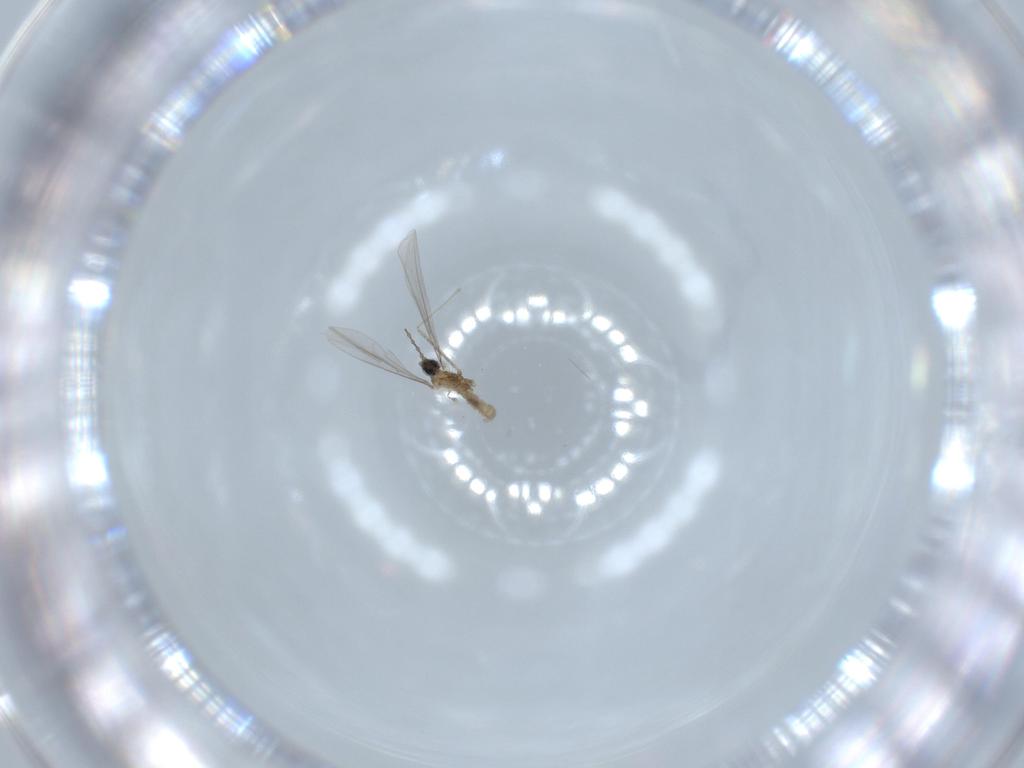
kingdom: Animalia
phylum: Arthropoda
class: Insecta
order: Diptera
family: Cecidomyiidae
